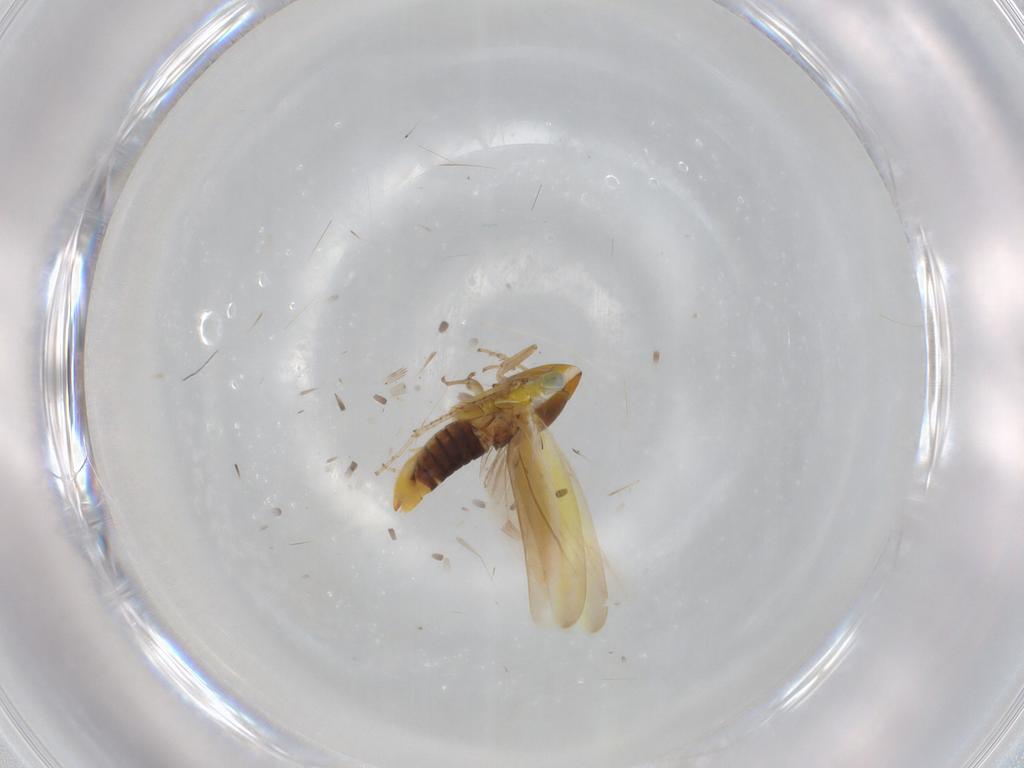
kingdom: Animalia
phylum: Arthropoda
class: Insecta
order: Hemiptera
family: Cicadellidae
